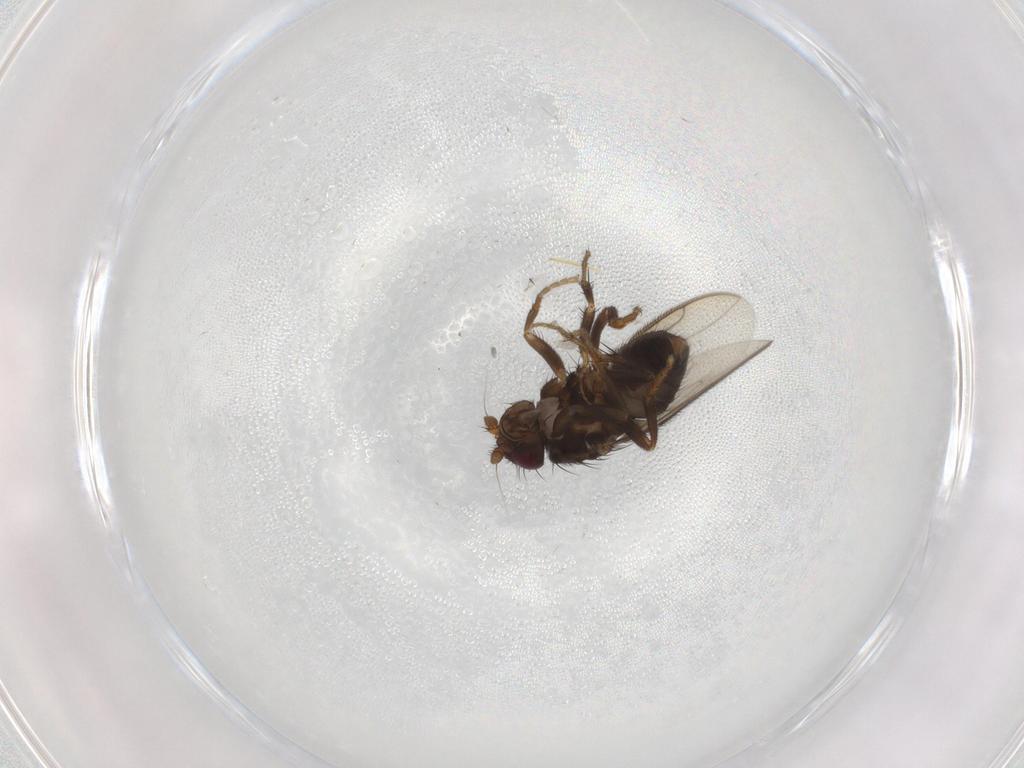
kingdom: Animalia
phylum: Arthropoda
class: Insecta
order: Diptera
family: Sphaeroceridae
